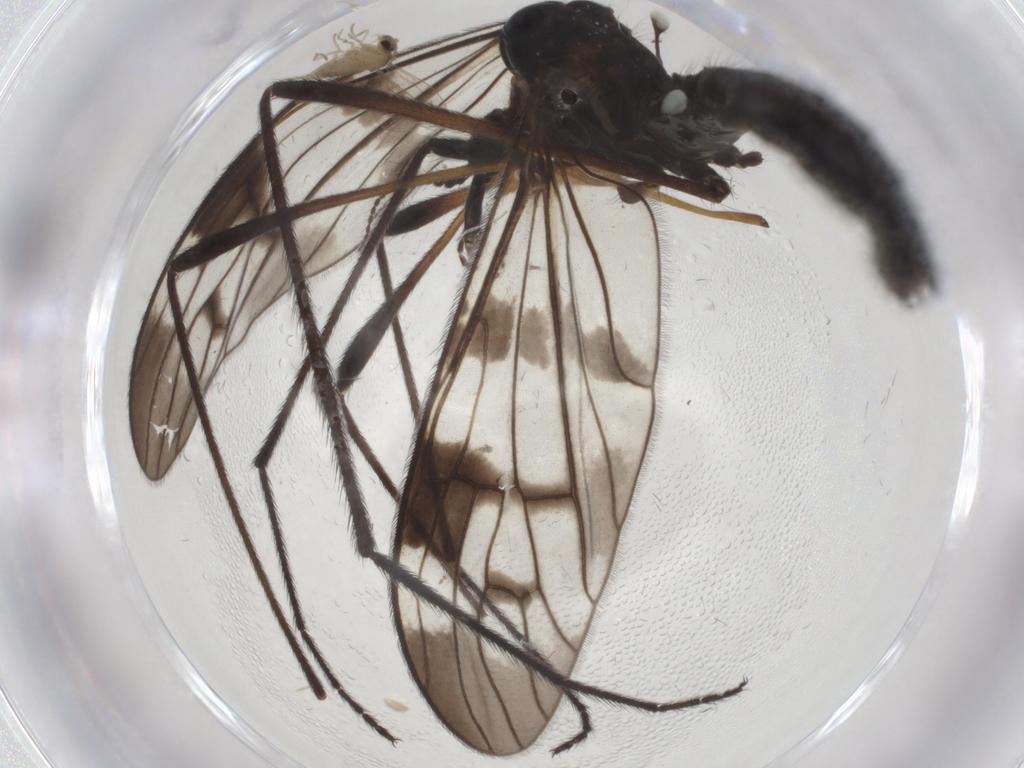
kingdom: Animalia
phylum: Arthropoda
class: Insecta
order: Diptera
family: Limoniidae
